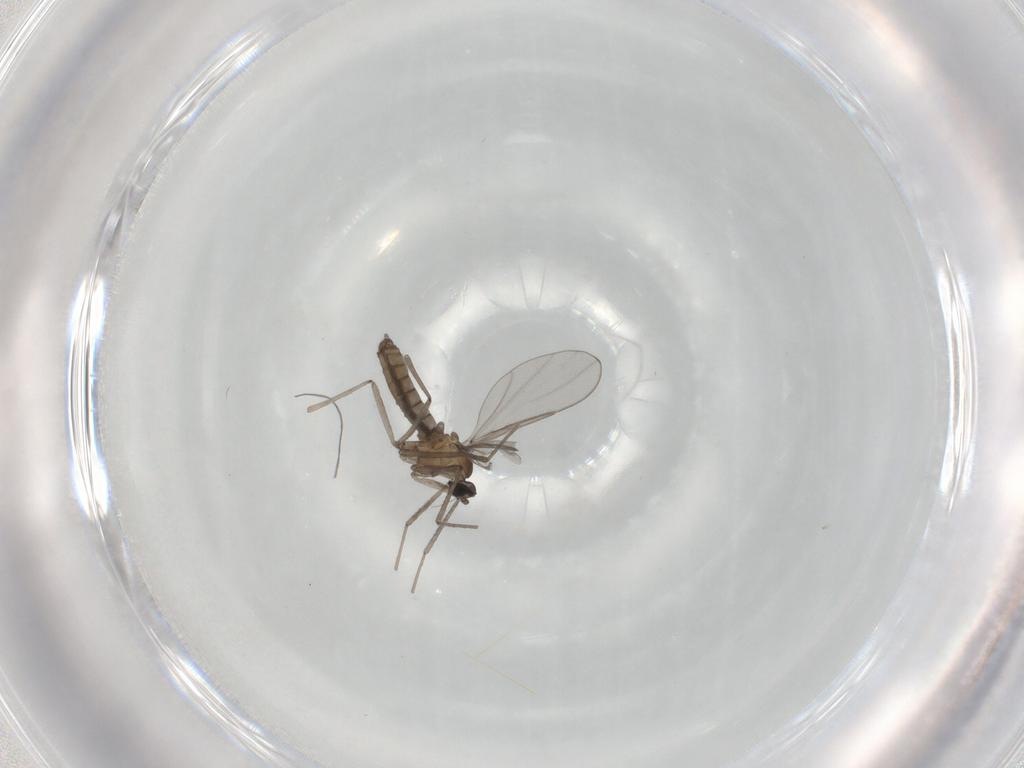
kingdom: Animalia
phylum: Arthropoda
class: Insecta
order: Diptera
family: Cecidomyiidae
